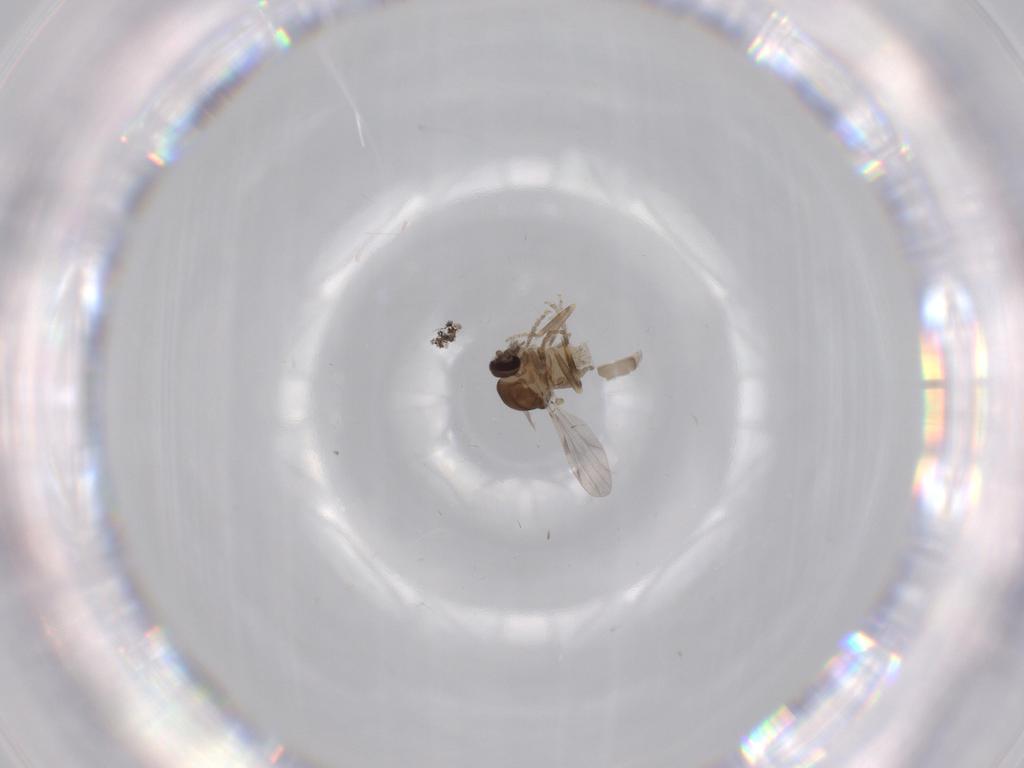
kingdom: Animalia
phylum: Arthropoda
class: Insecta
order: Diptera
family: Ceratopogonidae
